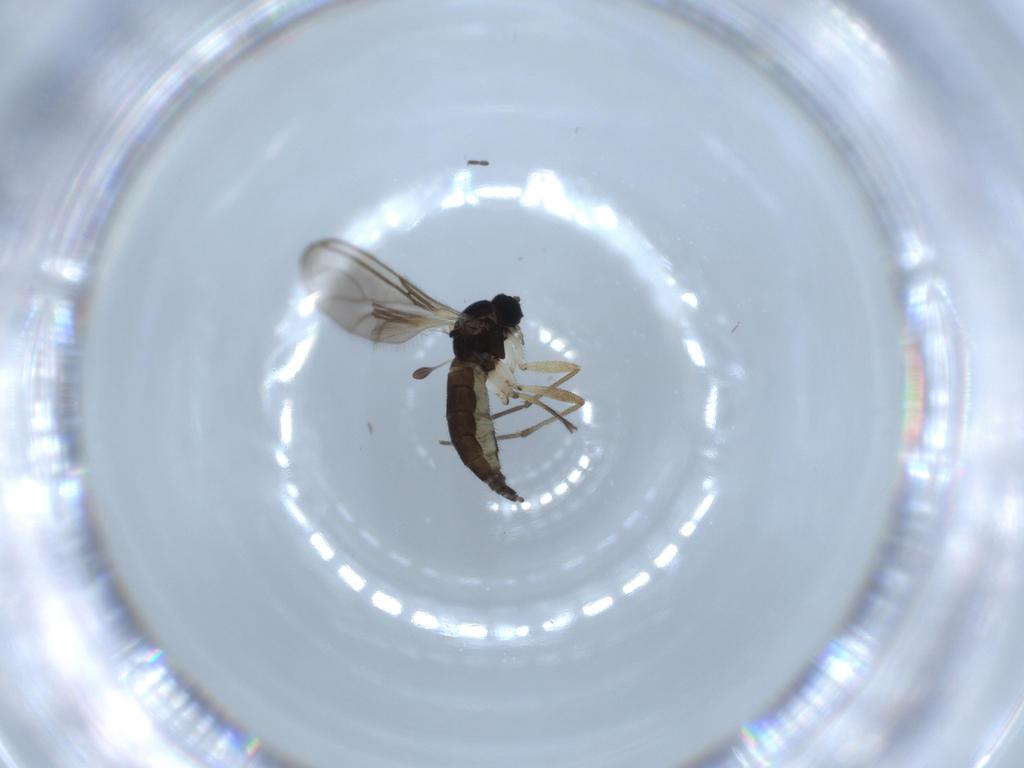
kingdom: Animalia
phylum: Arthropoda
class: Insecta
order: Diptera
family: Sciaridae
